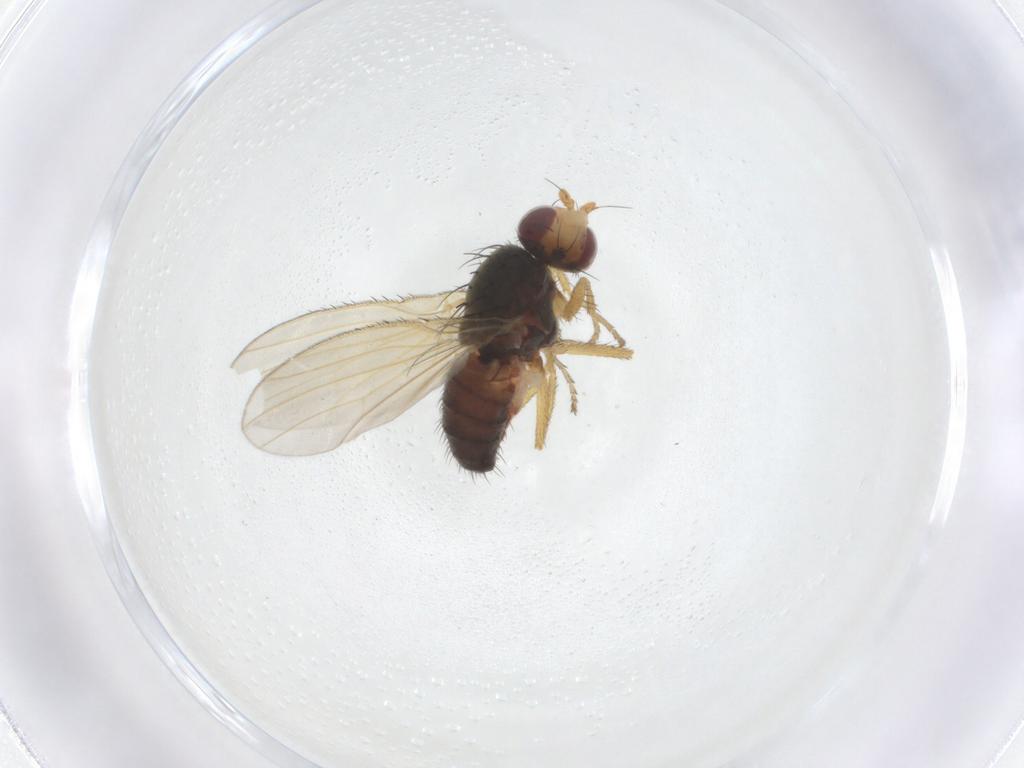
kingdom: Animalia
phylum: Arthropoda
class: Insecta
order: Diptera
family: Heleomyzidae
